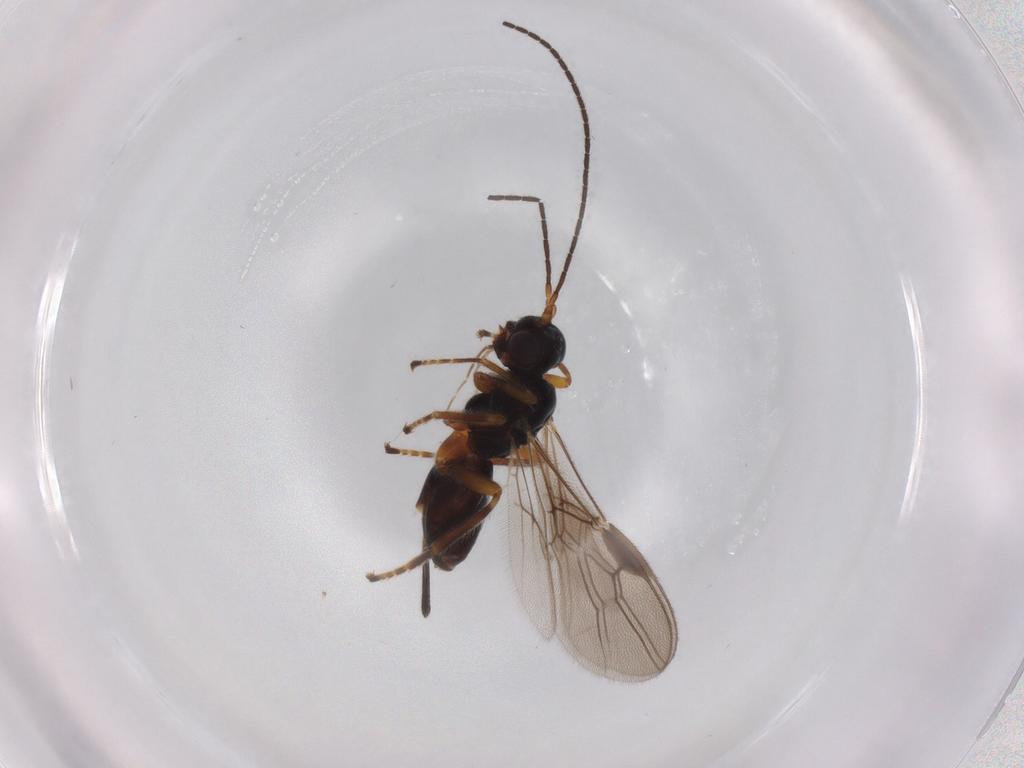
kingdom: Animalia
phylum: Arthropoda
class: Insecta
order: Hymenoptera
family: Braconidae
